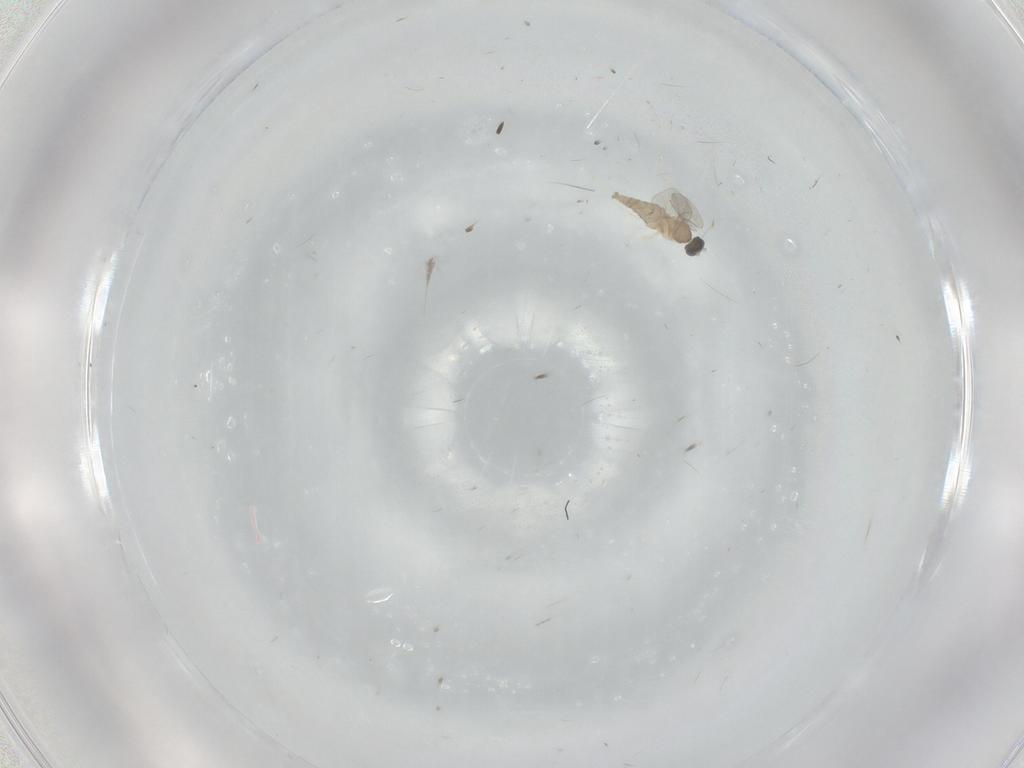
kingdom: Animalia
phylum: Arthropoda
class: Insecta
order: Diptera
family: Cecidomyiidae
